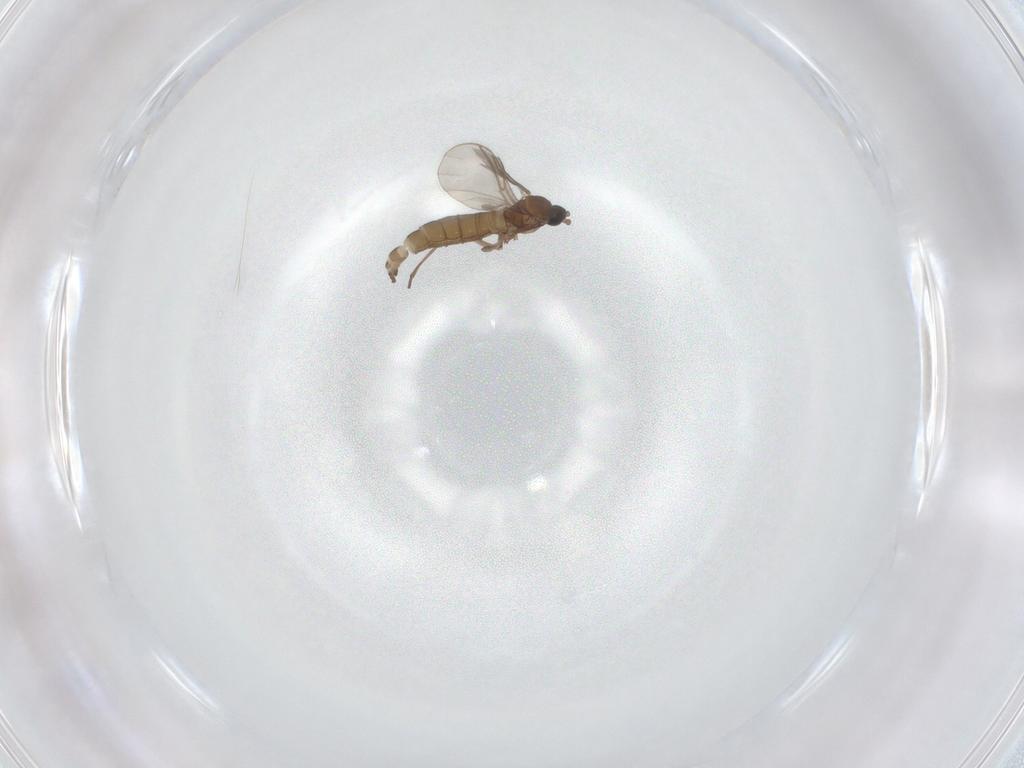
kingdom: Animalia
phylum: Arthropoda
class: Insecta
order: Diptera
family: Sciaridae
